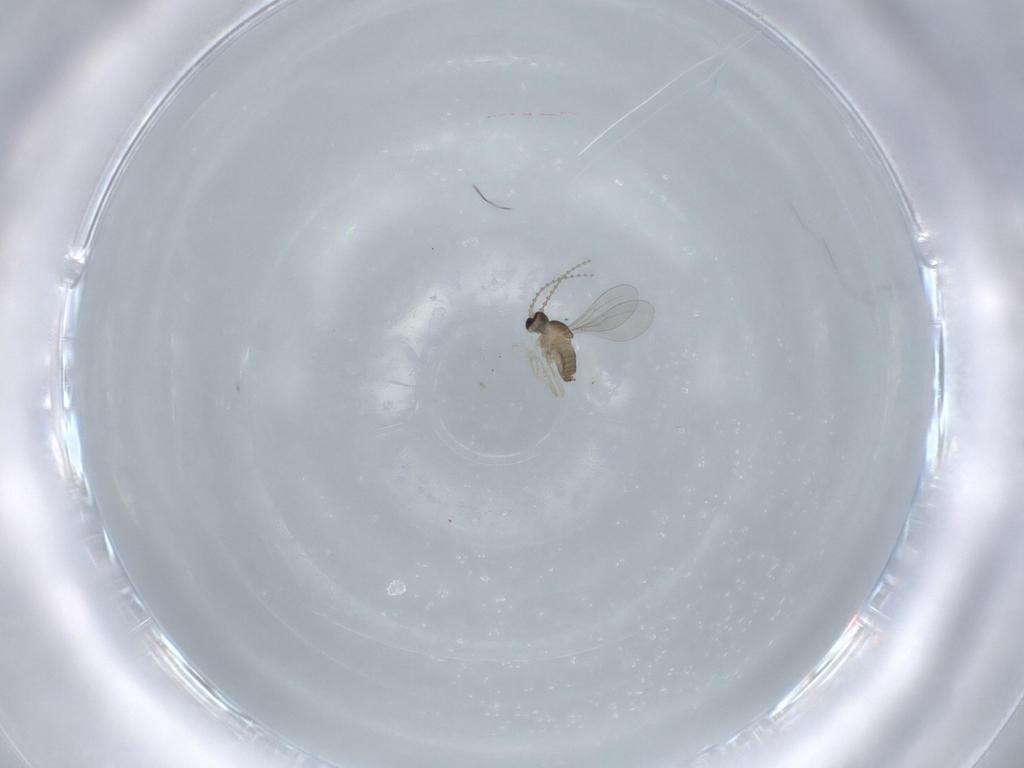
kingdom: Animalia
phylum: Arthropoda
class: Insecta
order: Diptera
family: Cecidomyiidae
